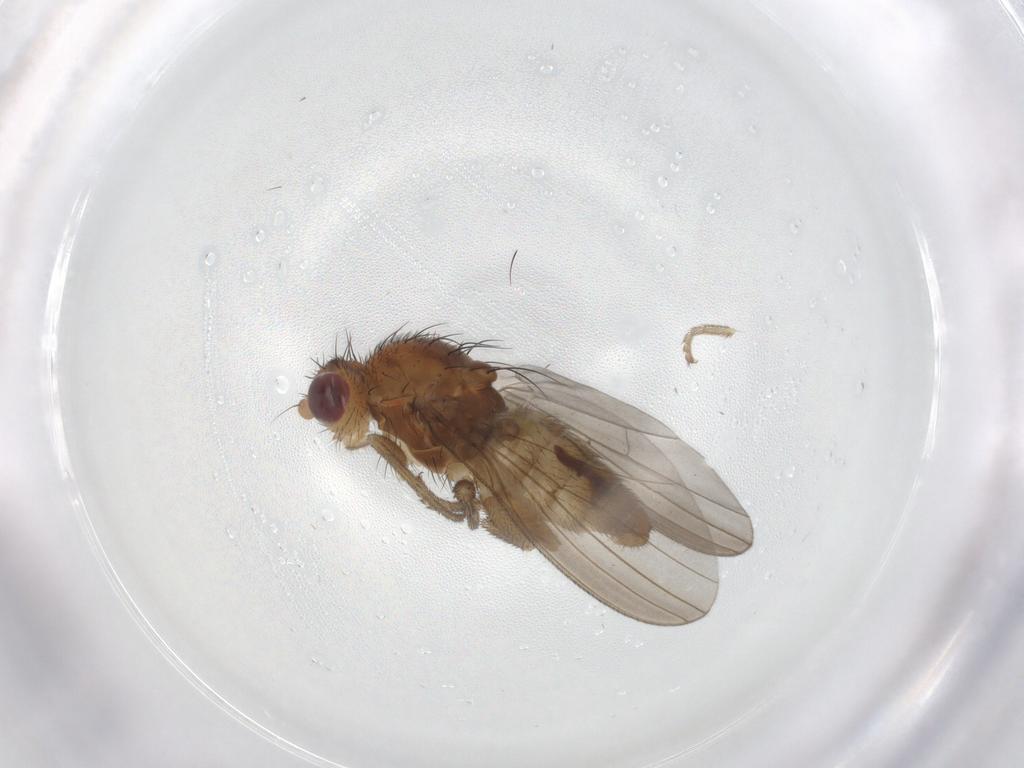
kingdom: Animalia
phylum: Arthropoda
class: Insecta
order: Diptera
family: Natalimyzidae
